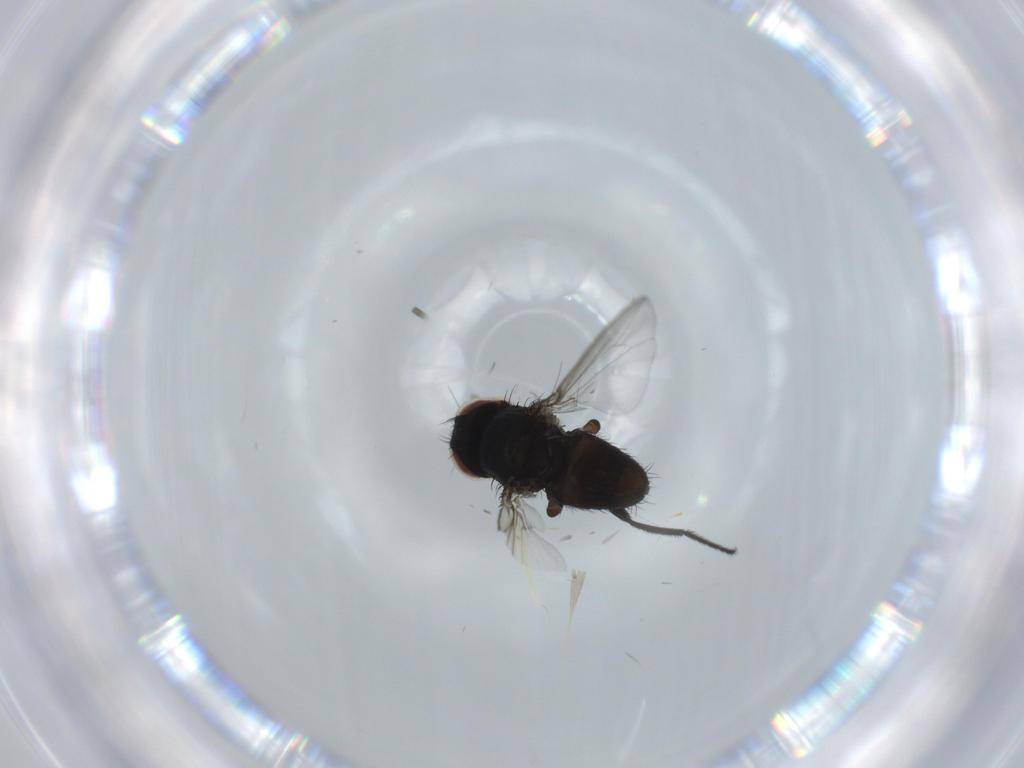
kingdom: Animalia
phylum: Arthropoda
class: Insecta
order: Diptera
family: Milichiidae
